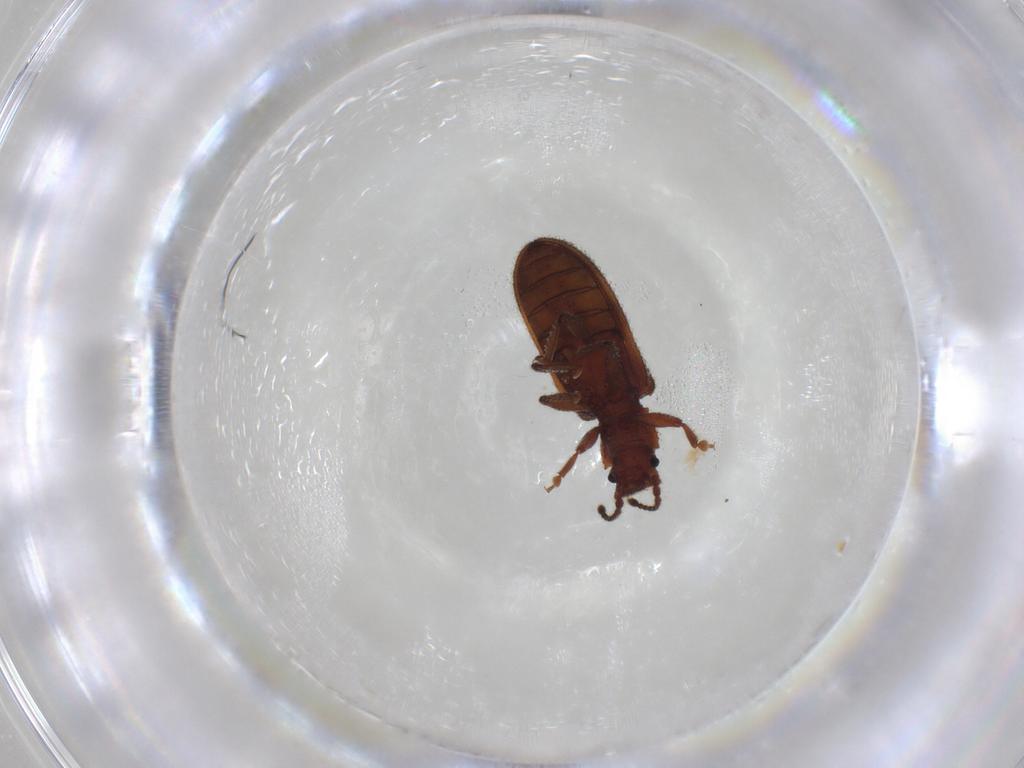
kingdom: Animalia
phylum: Arthropoda
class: Insecta
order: Coleoptera
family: Zopheridae
